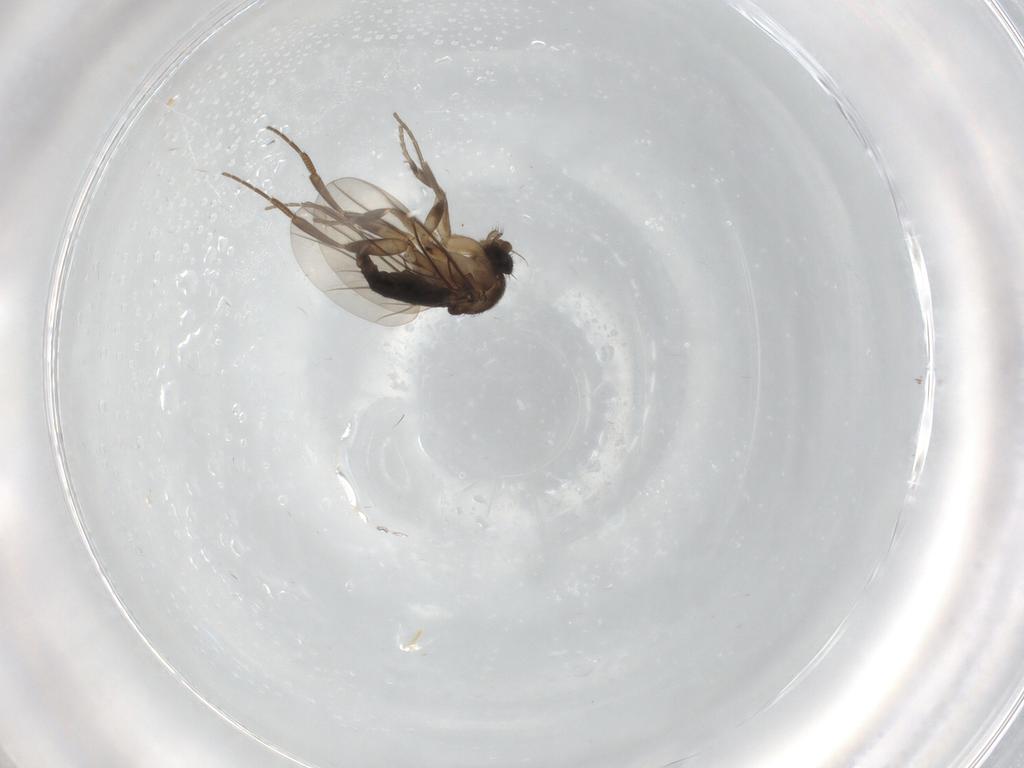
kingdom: Animalia
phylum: Arthropoda
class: Insecta
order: Diptera
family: Phoridae
